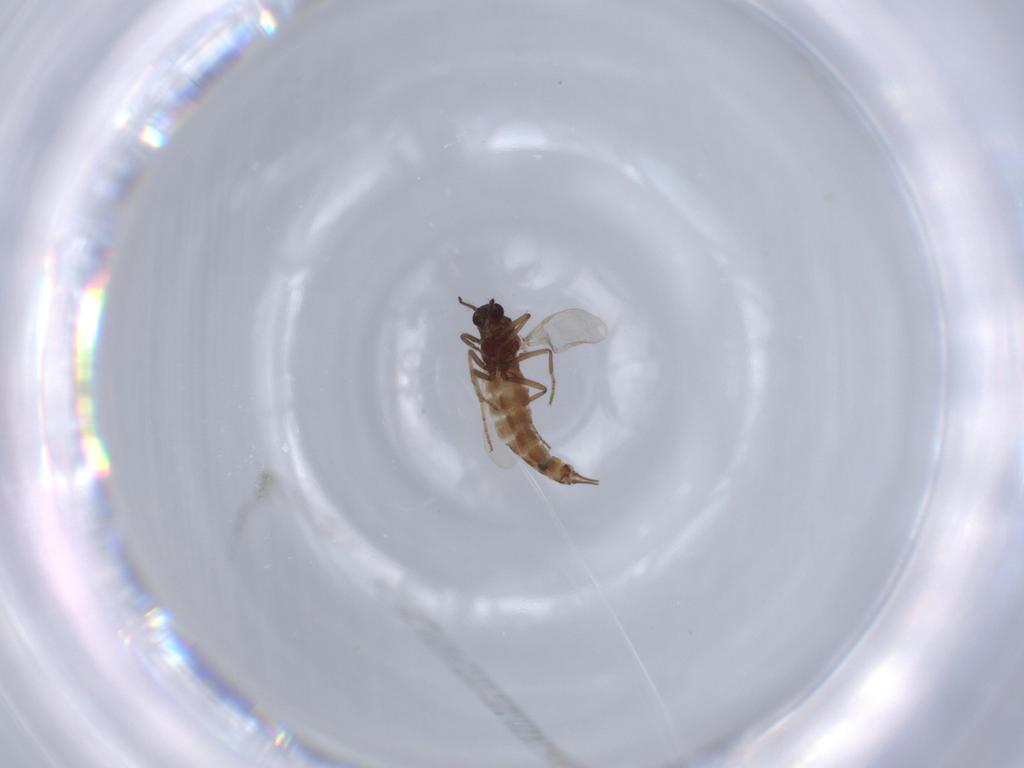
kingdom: Animalia
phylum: Arthropoda
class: Insecta
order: Diptera
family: Ceratopogonidae
